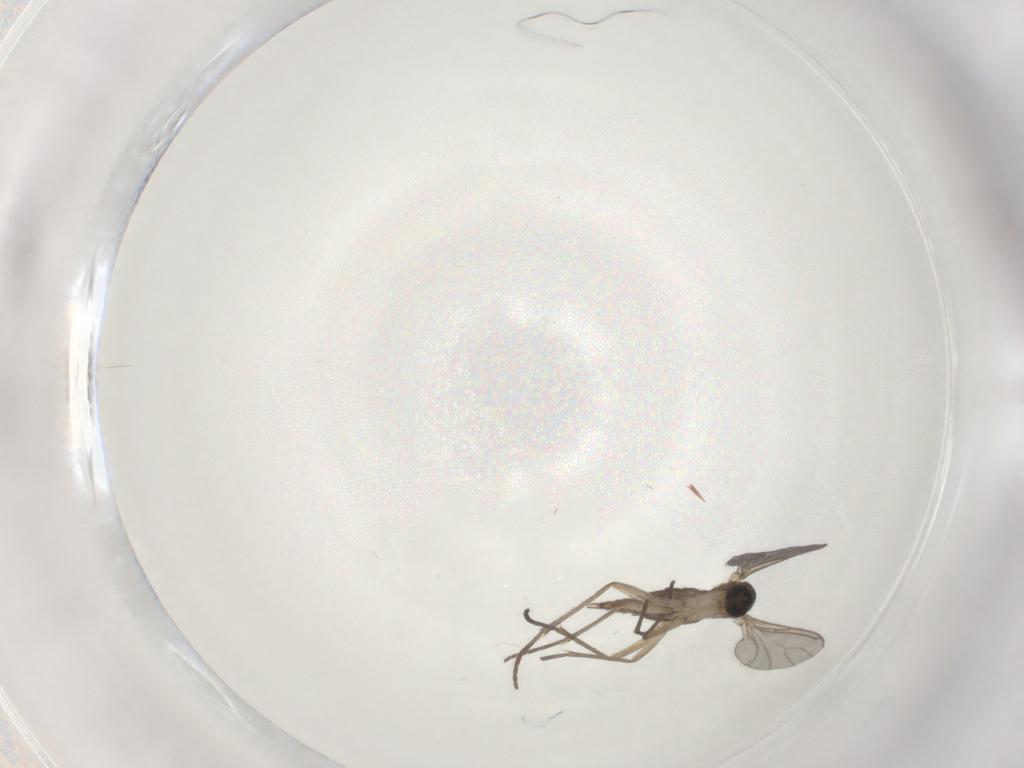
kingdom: Animalia
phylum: Arthropoda
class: Insecta
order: Diptera
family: Sciaridae
